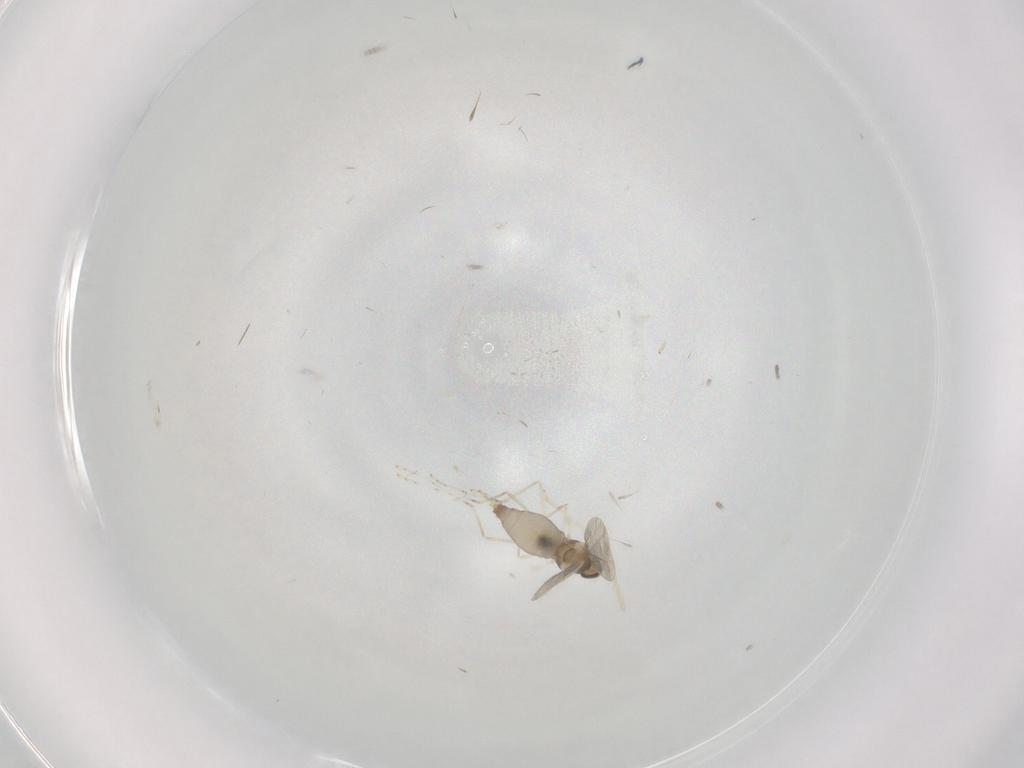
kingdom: Animalia
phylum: Arthropoda
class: Insecta
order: Diptera
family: Cecidomyiidae
